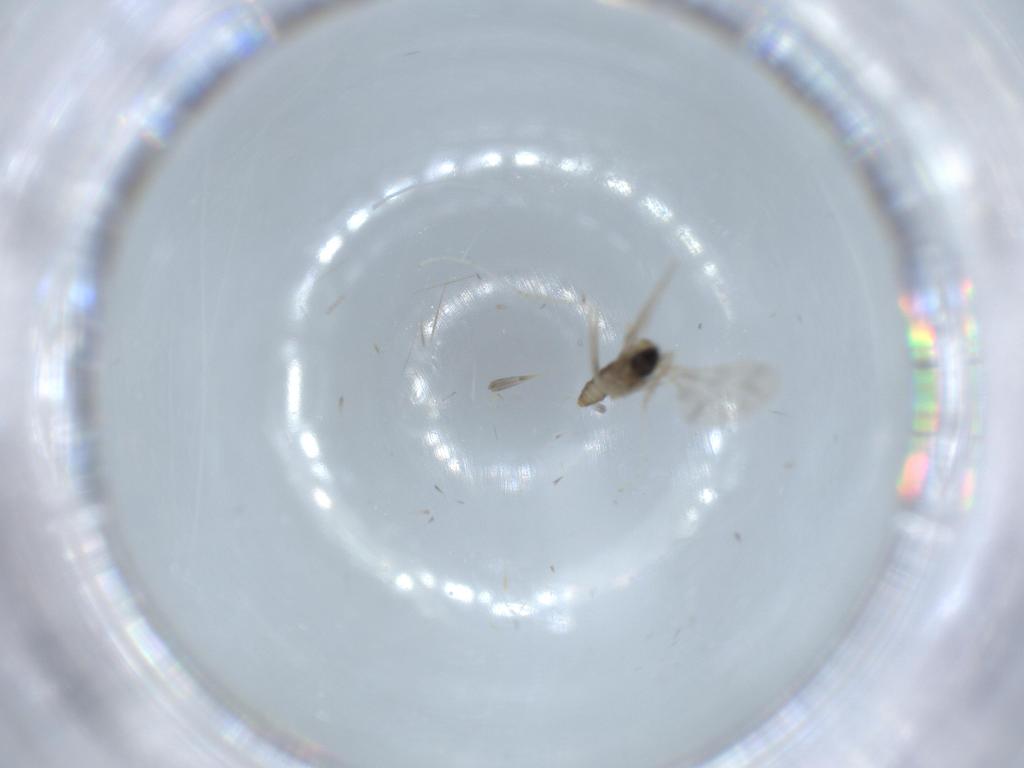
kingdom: Animalia
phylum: Arthropoda
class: Insecta
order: Diptera
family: Cecidomyiidae
